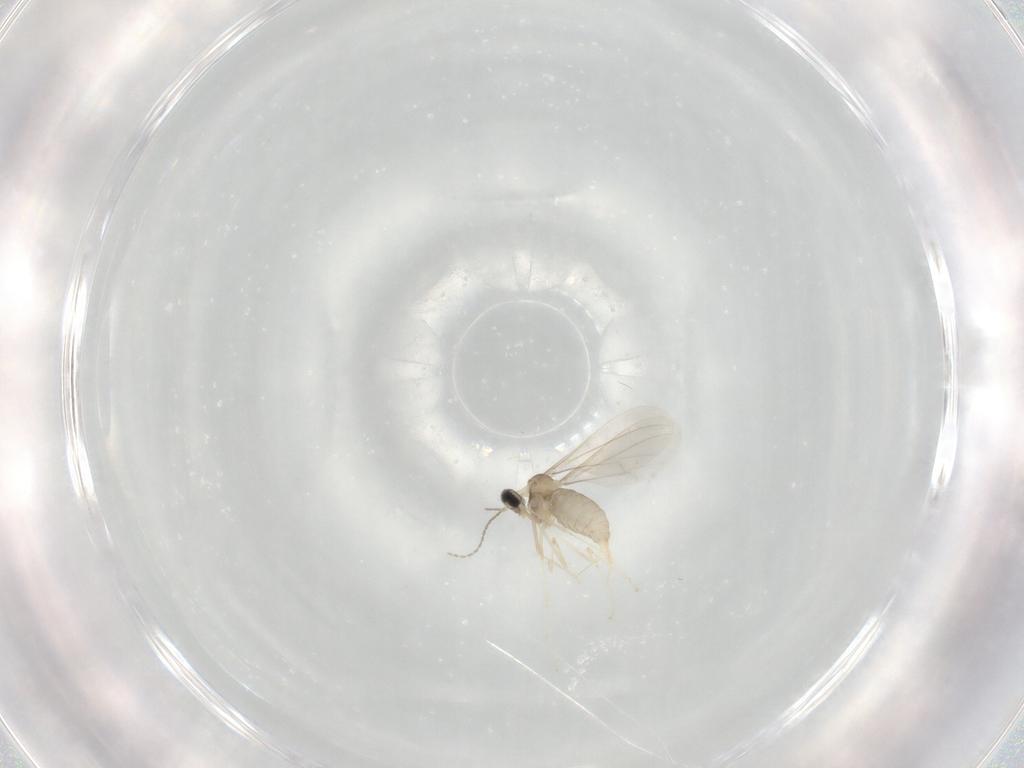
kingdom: Animalia
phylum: Arthropoda
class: Insecta
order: Diptera
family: Cecidomyiidae
